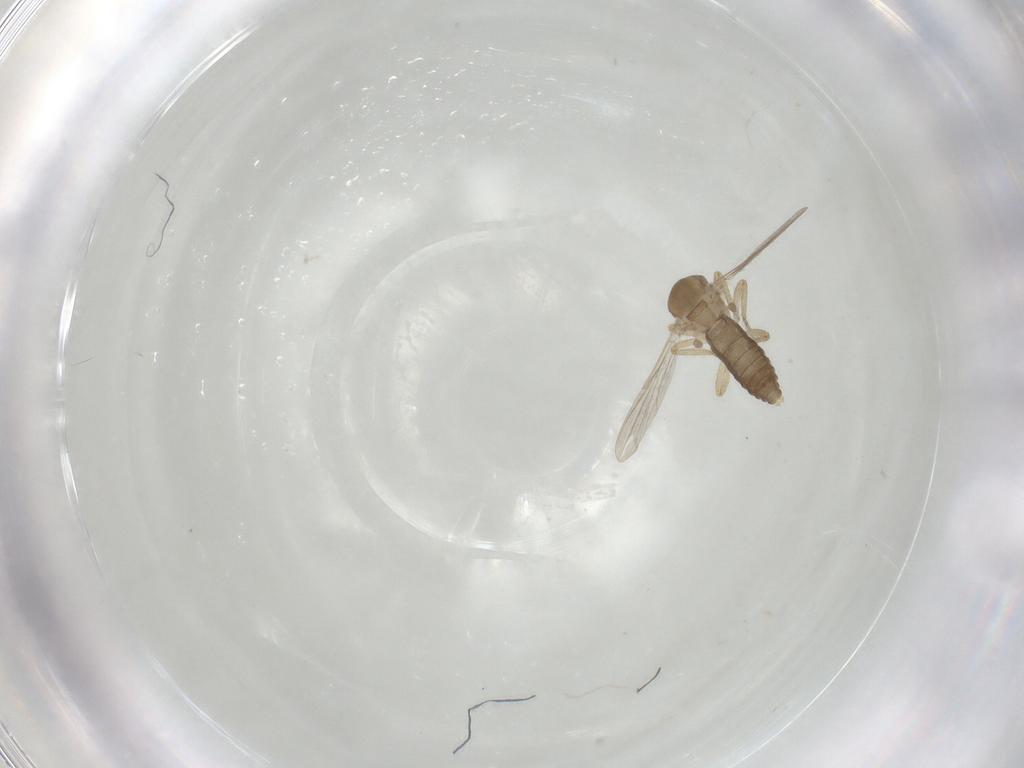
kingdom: Animalia
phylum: Arthropoda
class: Insecta
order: Diptera
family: Ceratopogonidae
